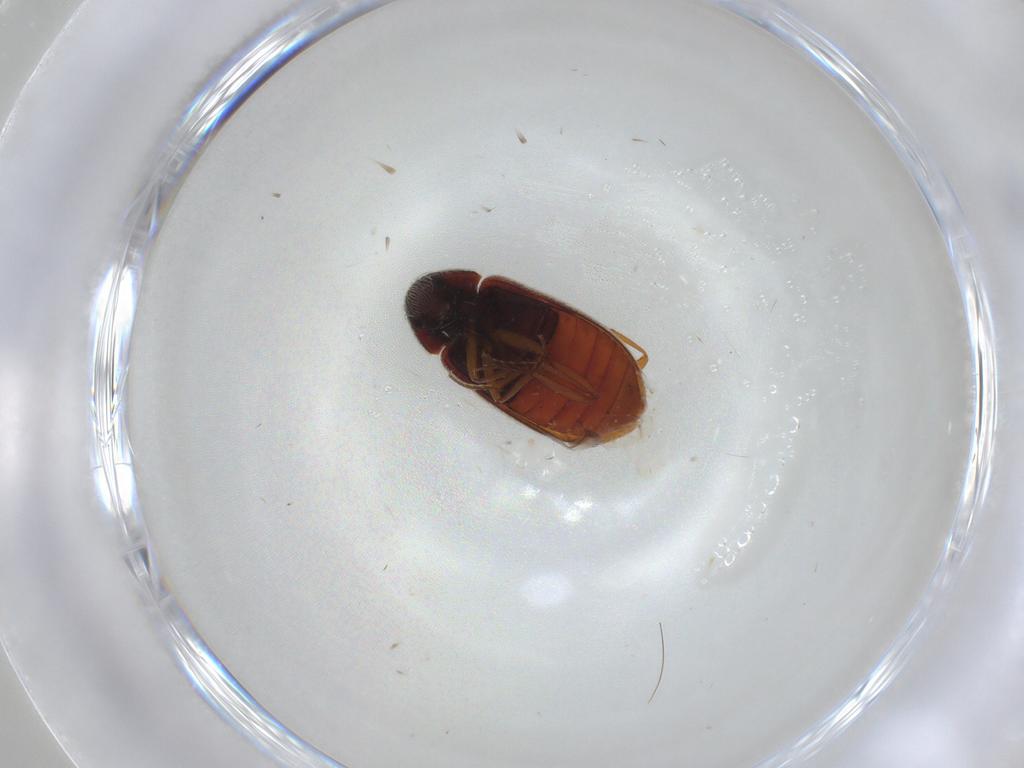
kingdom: Animalia
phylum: Arthropoda
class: Insecta
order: Coleoptera
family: Rhadalidae
